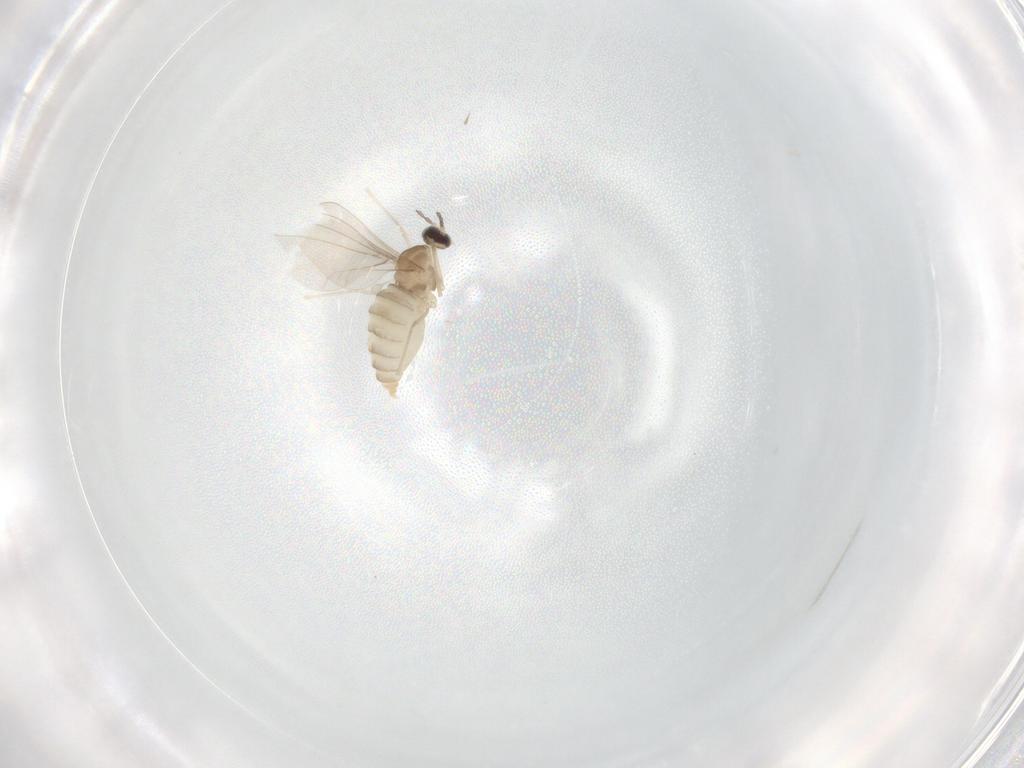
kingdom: Animalia
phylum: Arthropoda
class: Insecta
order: Diptera
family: Cecidomyiidae
